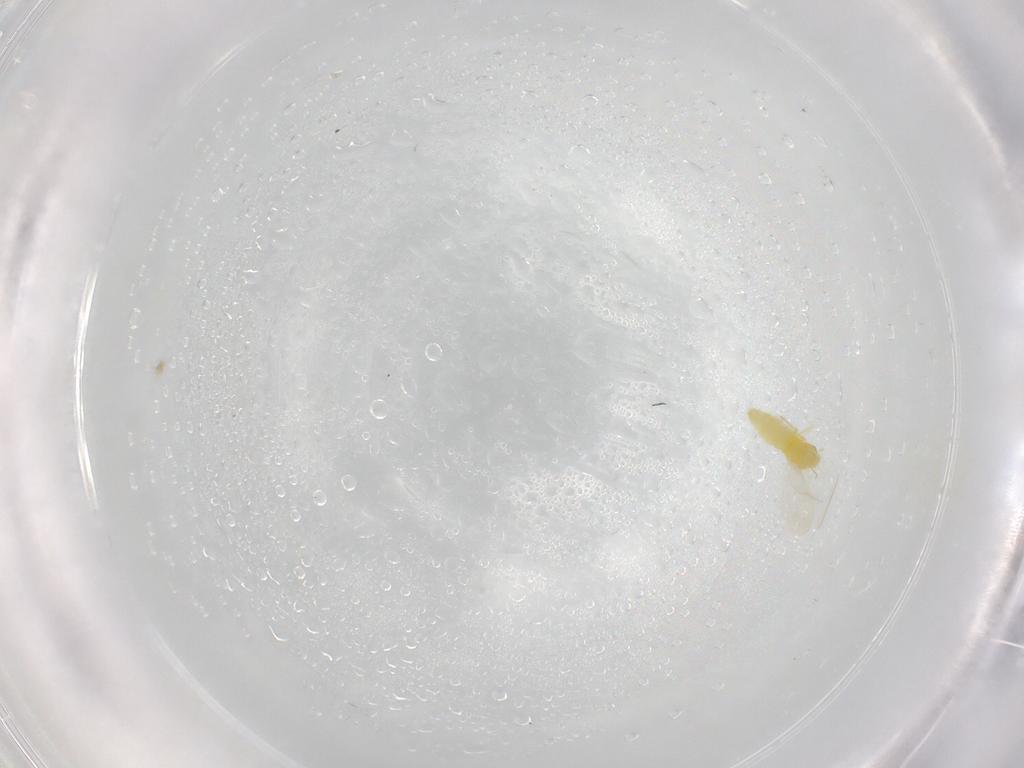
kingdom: Animalia
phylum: Arthropoda
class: Insecta
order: Hemiptera
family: Aleyrodidae
